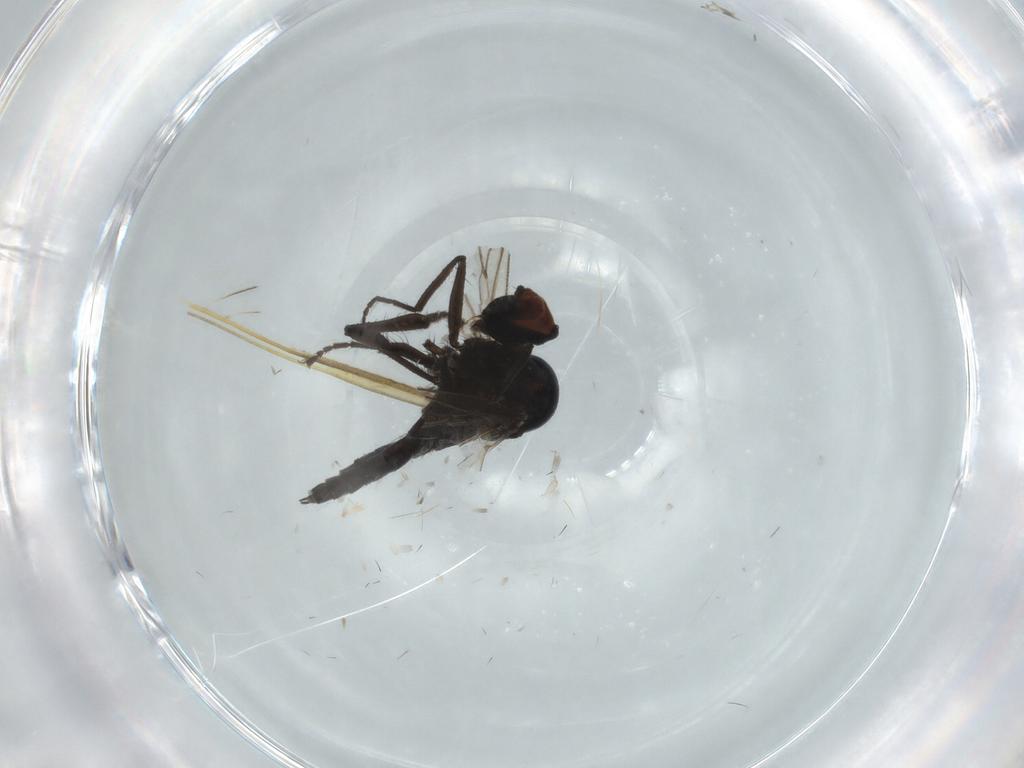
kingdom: Animalia
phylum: Arthropoda
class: Insecta
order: Diptera
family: Hybotidae
